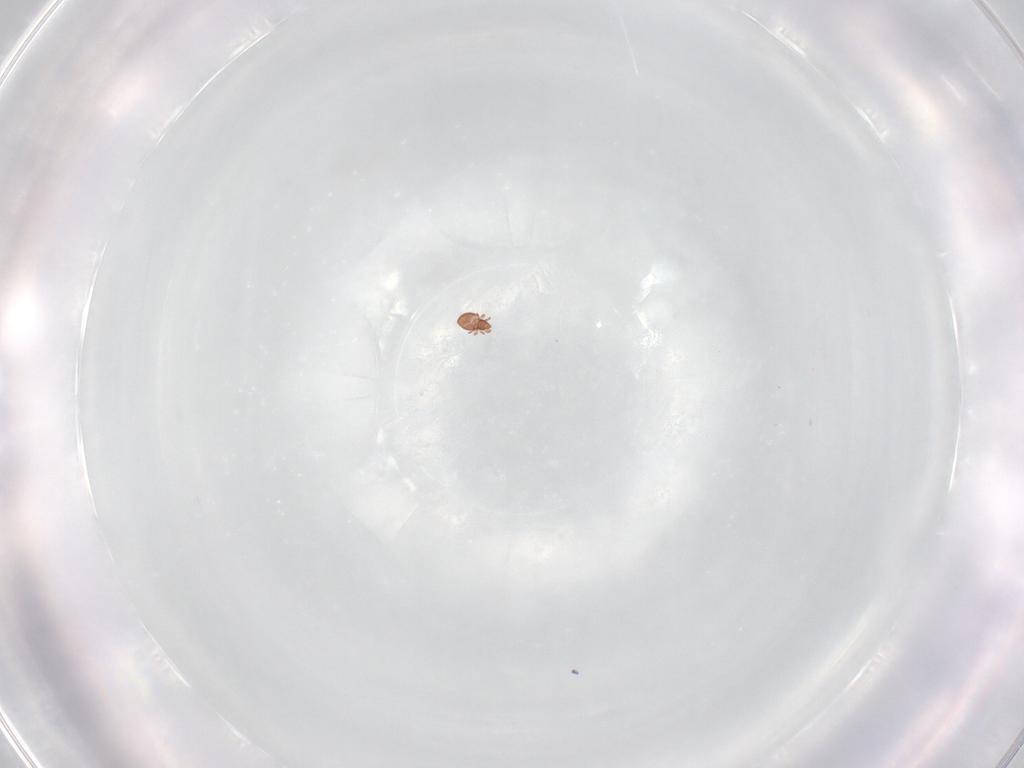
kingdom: Animalia
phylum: Arthropoda
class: Arachnida
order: Sarcoptiformes
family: Oppiidae
